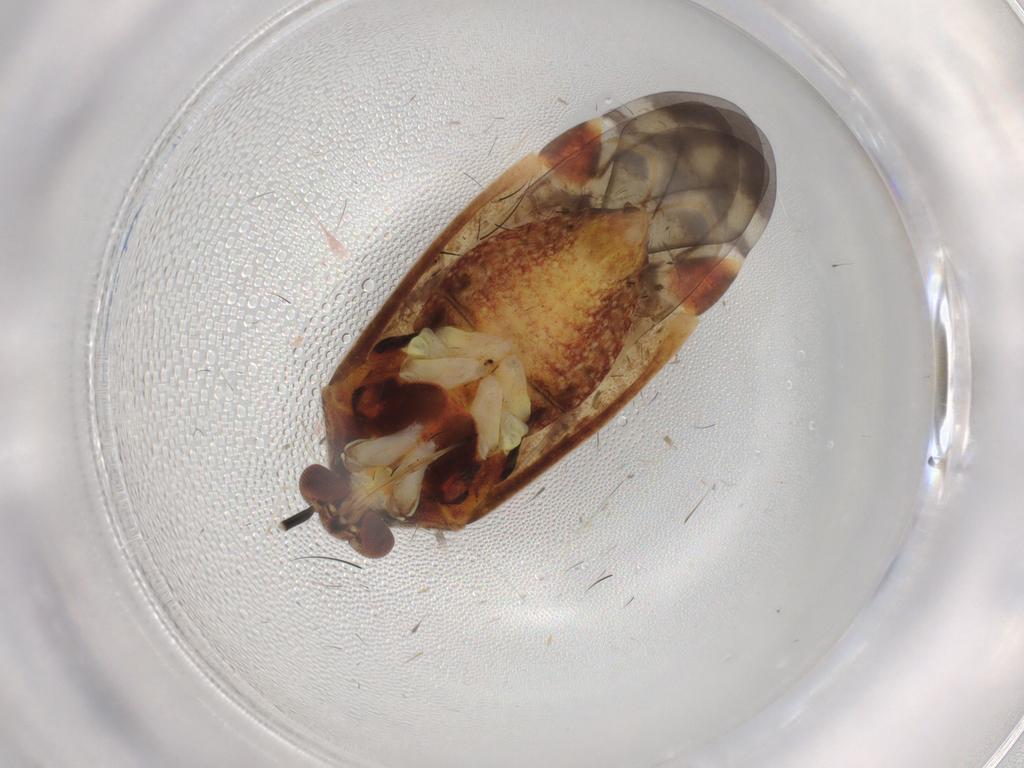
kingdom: Animalia
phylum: Arthropoda
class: Insecta
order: Hemiptera
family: Miridae
